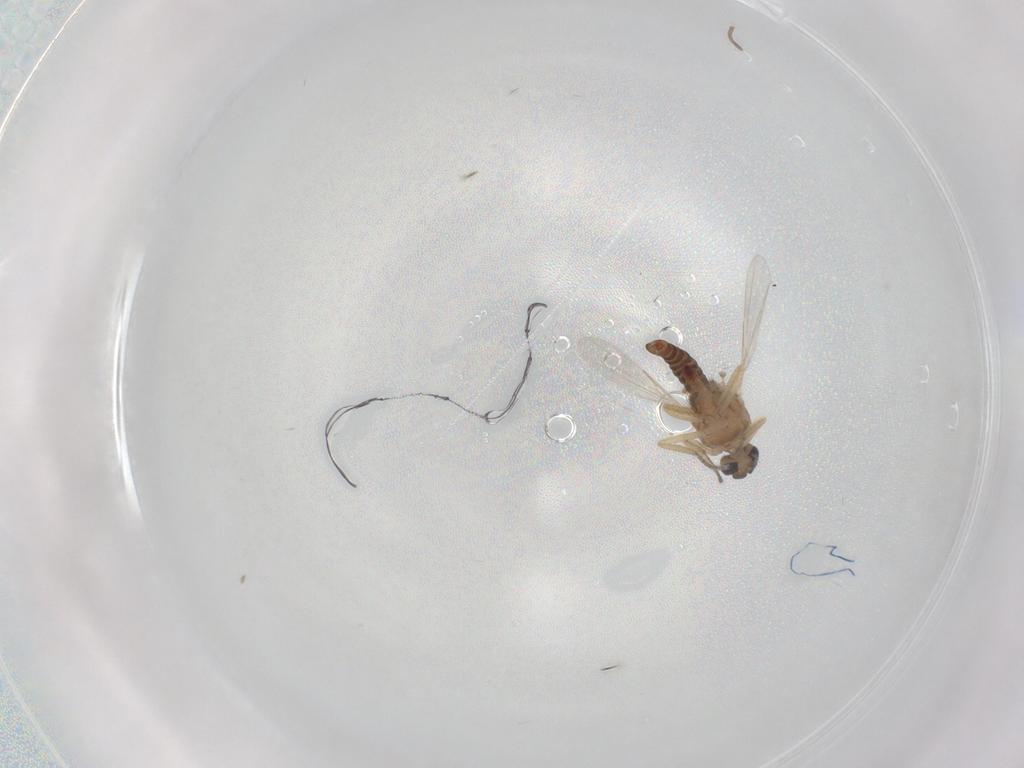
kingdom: Animalia
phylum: Arthropoda
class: Insecta
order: Diptera
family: Ceratopogonidae
